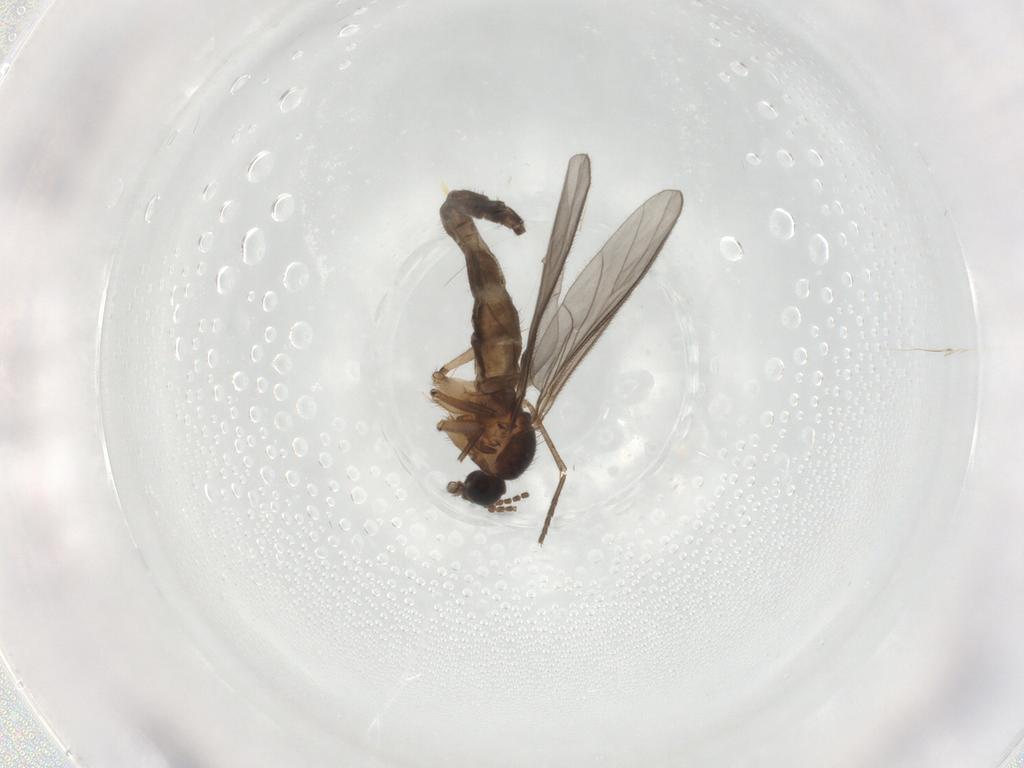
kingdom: Animalia
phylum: Arthropoda
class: Insecta
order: Diptera
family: Sciaridae
